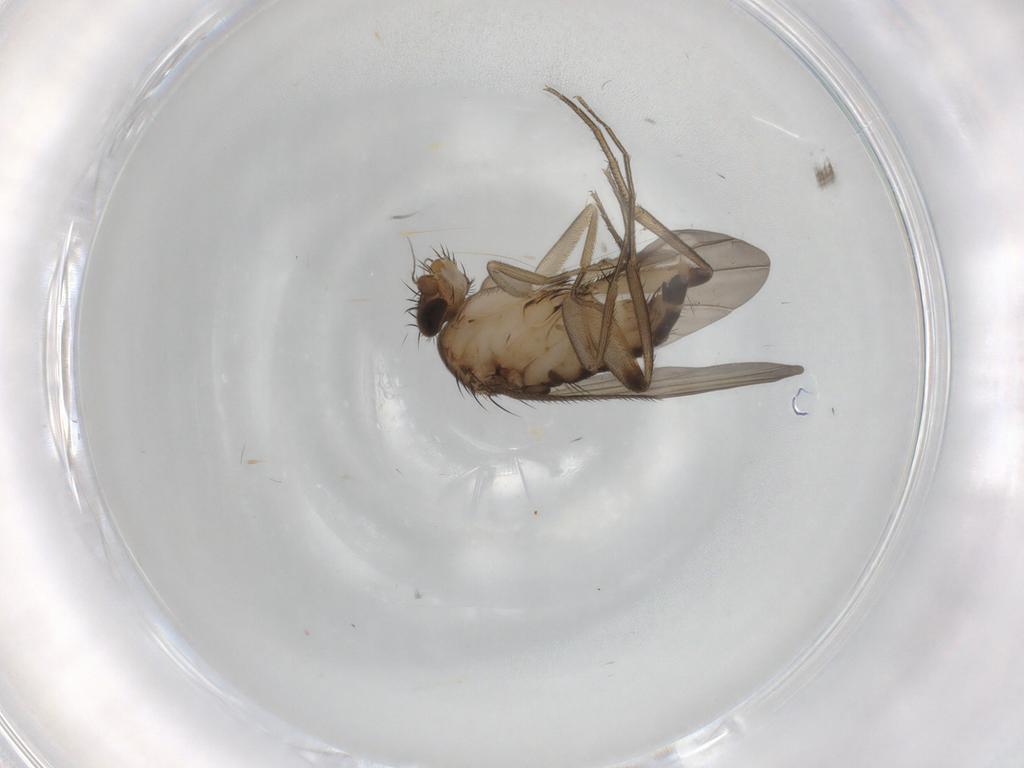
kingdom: Animalia
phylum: Arthropoda
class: Insecta
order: Diptera
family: Phoridae
